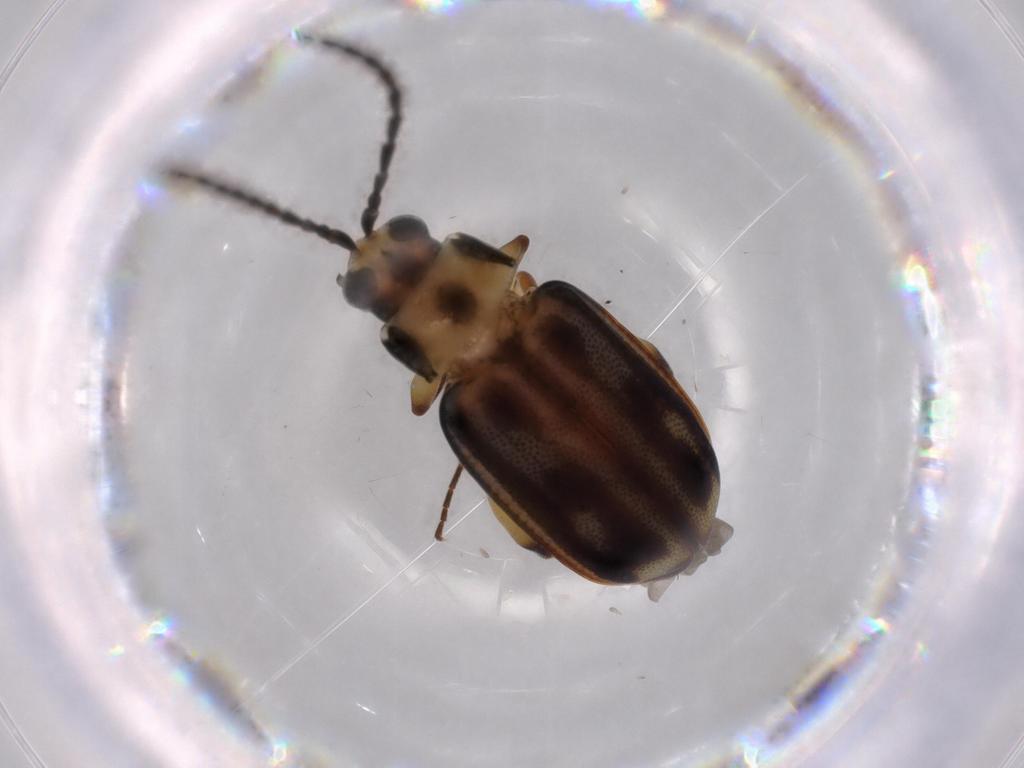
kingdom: Animalia
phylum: Arthropoda
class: Insecta
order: Coleoptera
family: Chrysomelidae
